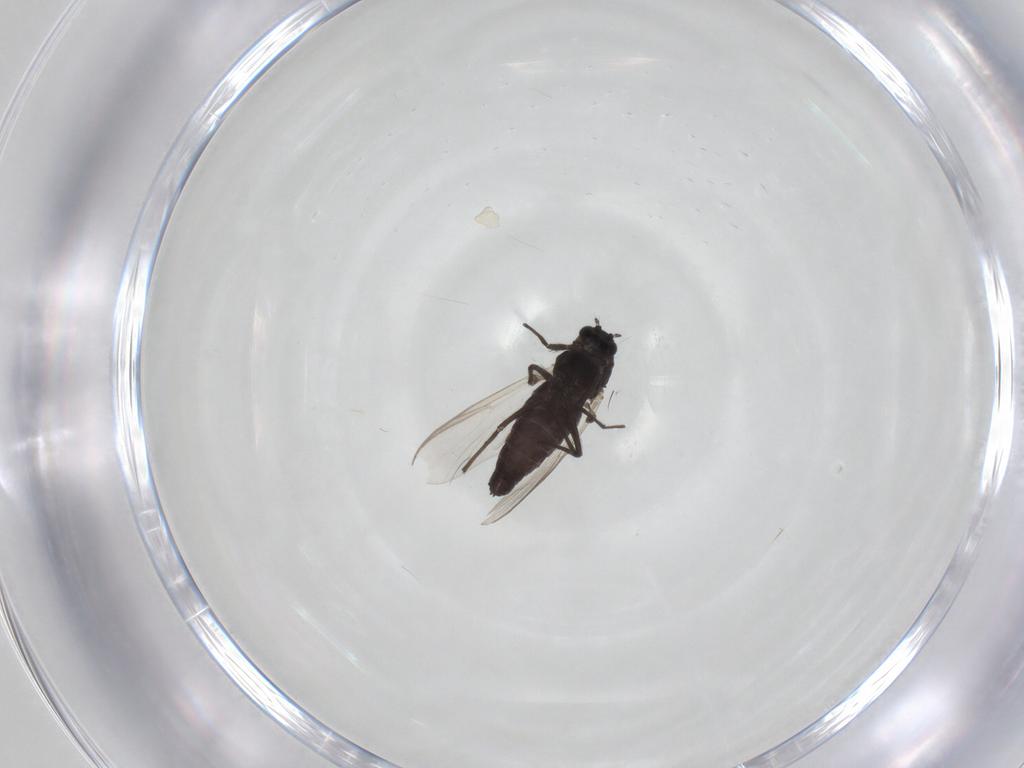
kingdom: Animalia
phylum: Arthropoda
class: Insecta
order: Diptera
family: Chironomidae
